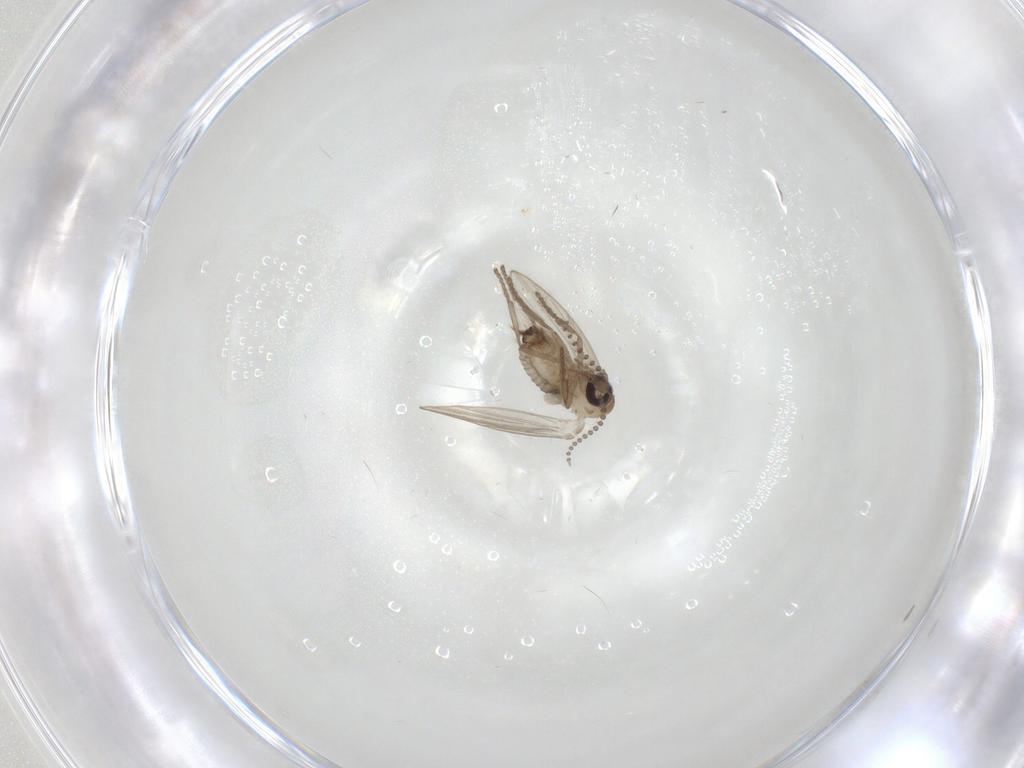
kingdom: Animalia
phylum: Arthropoda
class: Insecta
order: Diptera
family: Psychodidae
